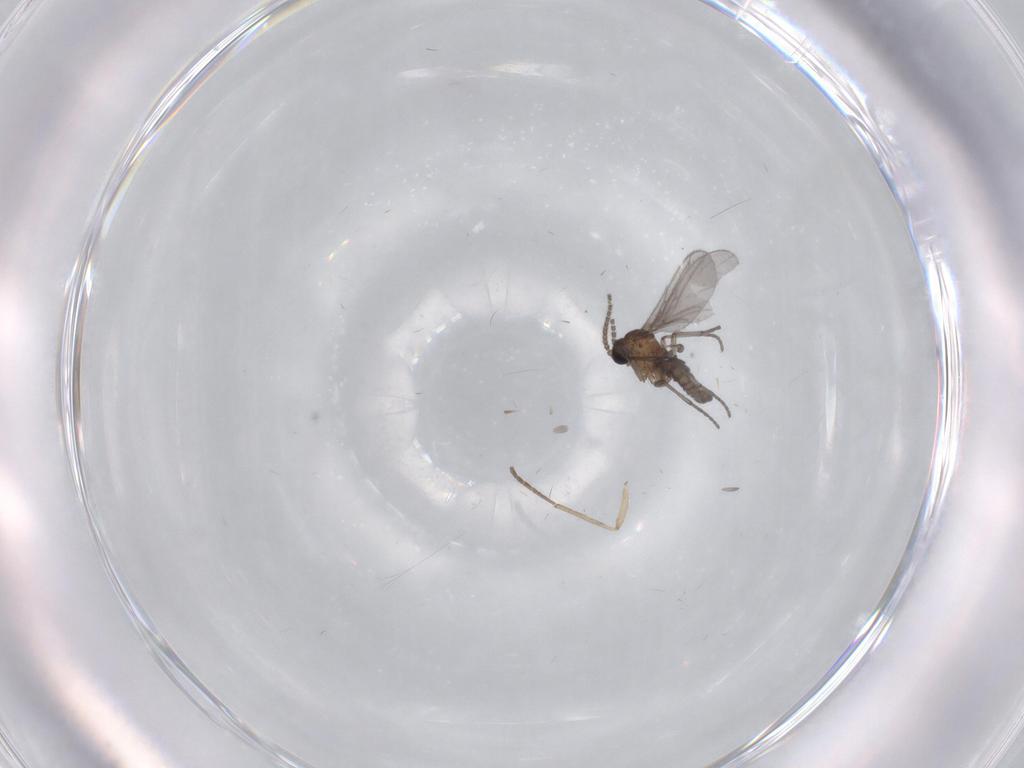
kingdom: Animalia
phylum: Arthropoda
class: Insecta
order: Diptera
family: Sciaridae
